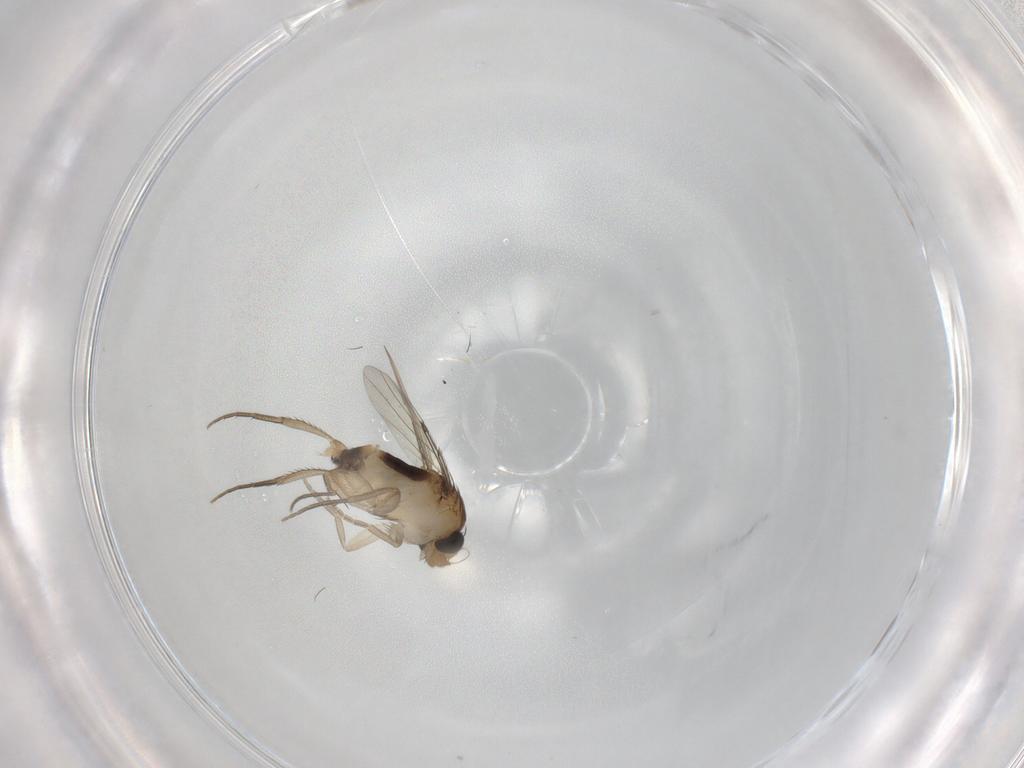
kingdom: Animalia
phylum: Arthropoda
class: Insecta
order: Diptera
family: Phoridae
